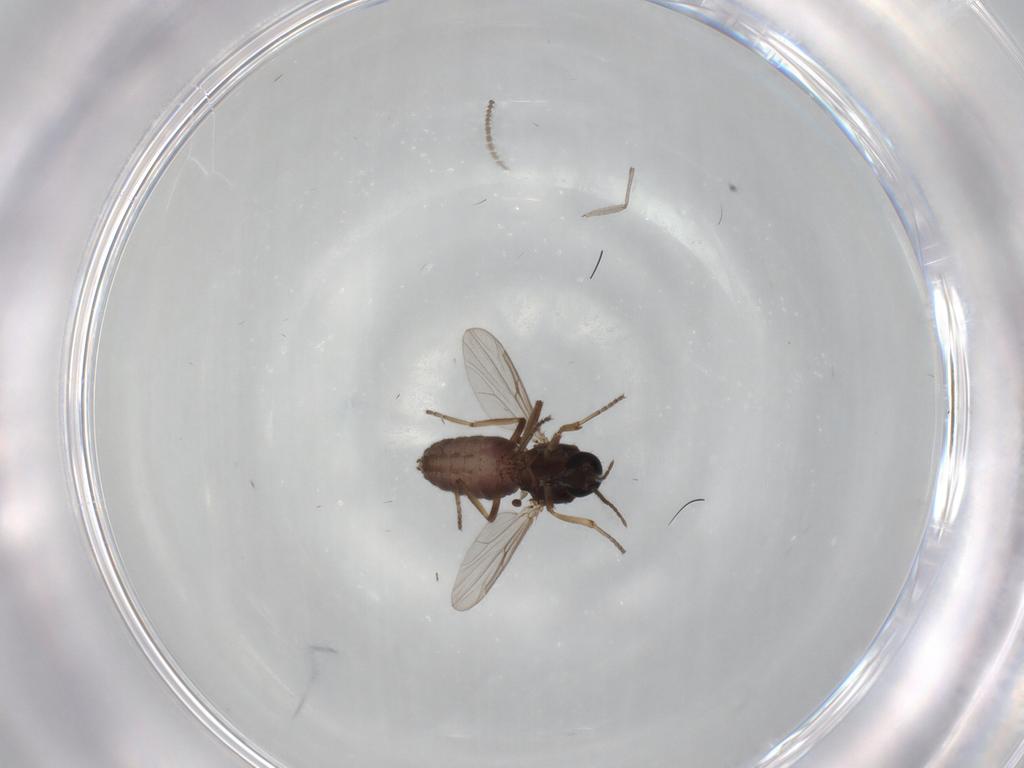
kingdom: Animalia
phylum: Arthropoda
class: Insecta
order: Diptera
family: Ceratopogonidae
